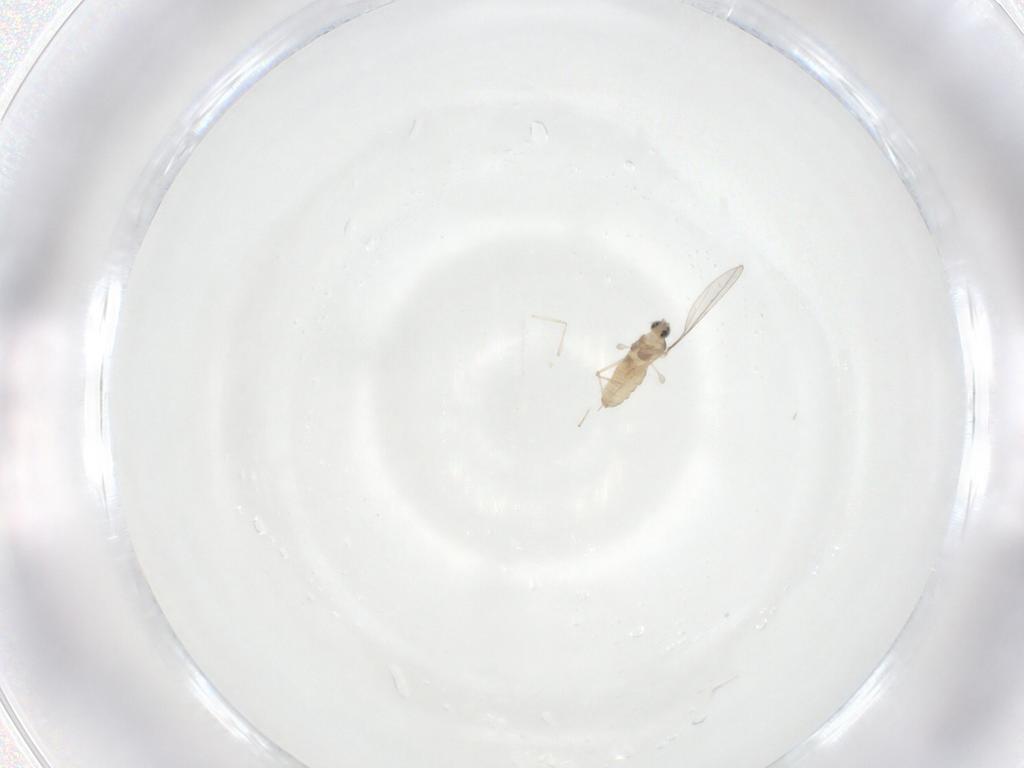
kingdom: Animalia
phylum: Arthropoda
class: Insecta
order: Diptera
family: Cecidomyiidae
